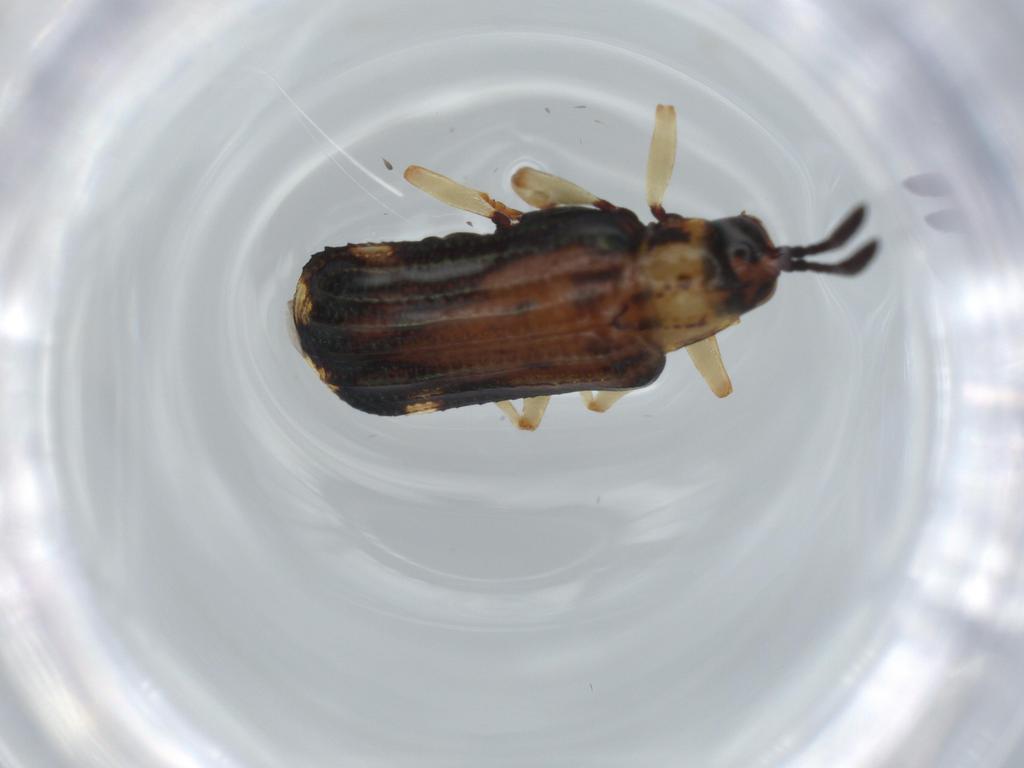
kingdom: Animalia
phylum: Arthropoda
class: Insecta
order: Coleoptera
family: Chrysomelidae
